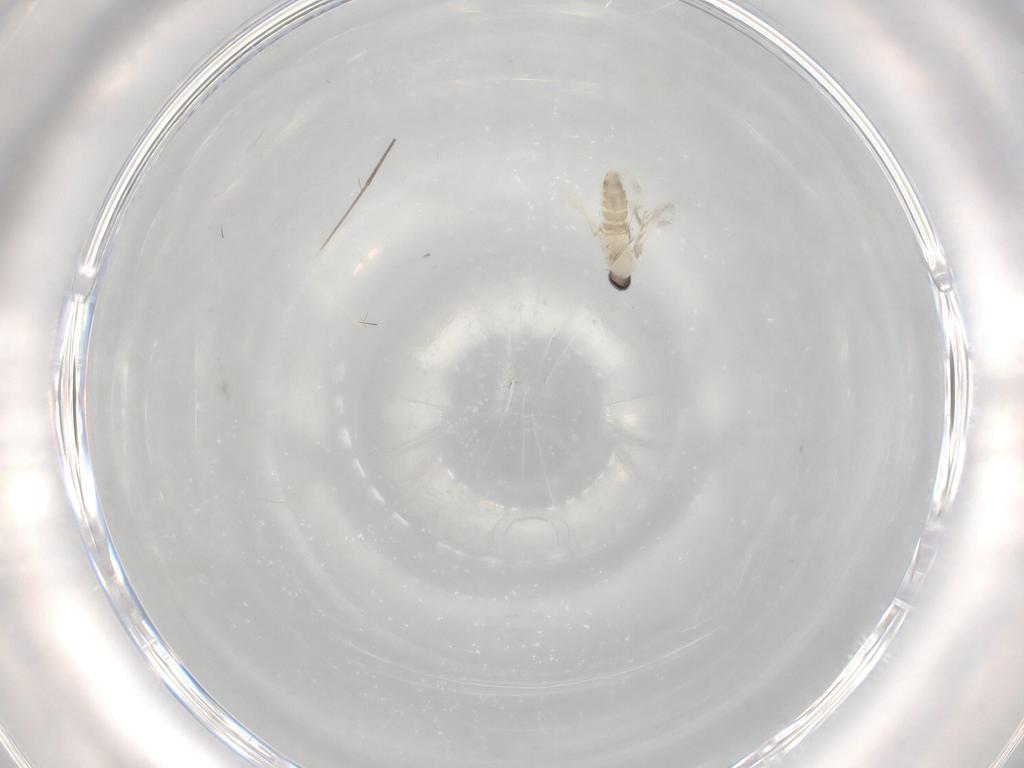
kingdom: Animalia
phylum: Arthropoda
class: Insecta
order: Diptera
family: Cecidomyiidae
